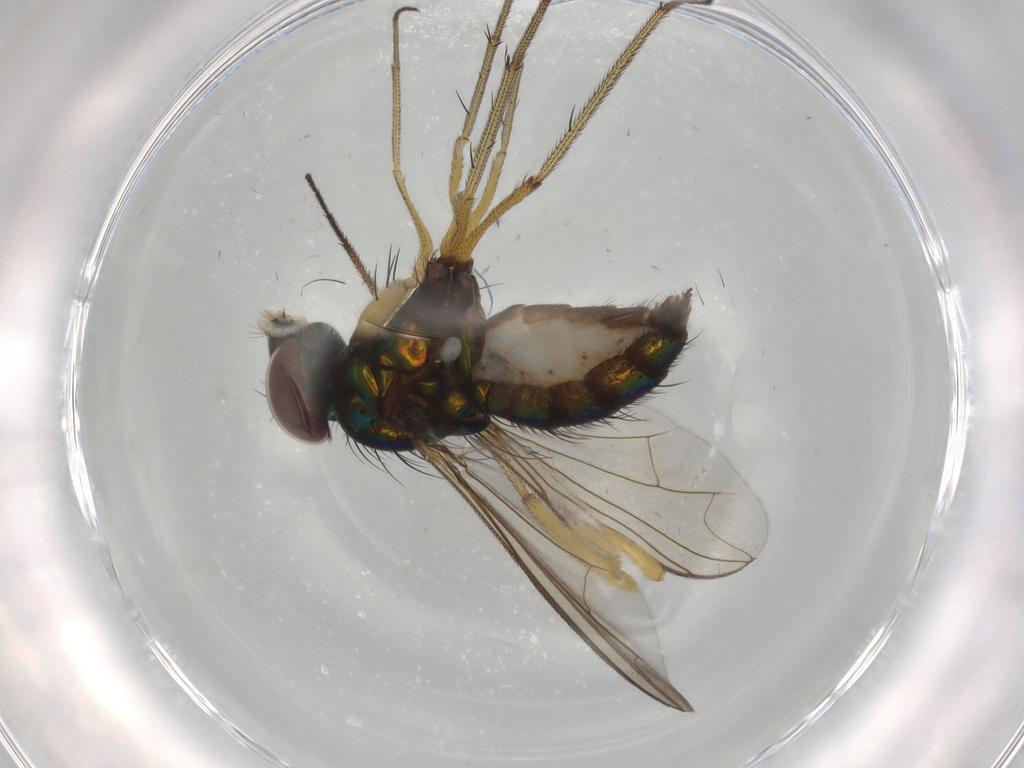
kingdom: Animalia
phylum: Arthropoda
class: Insecta
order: Diptera
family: Dolichopodidae
